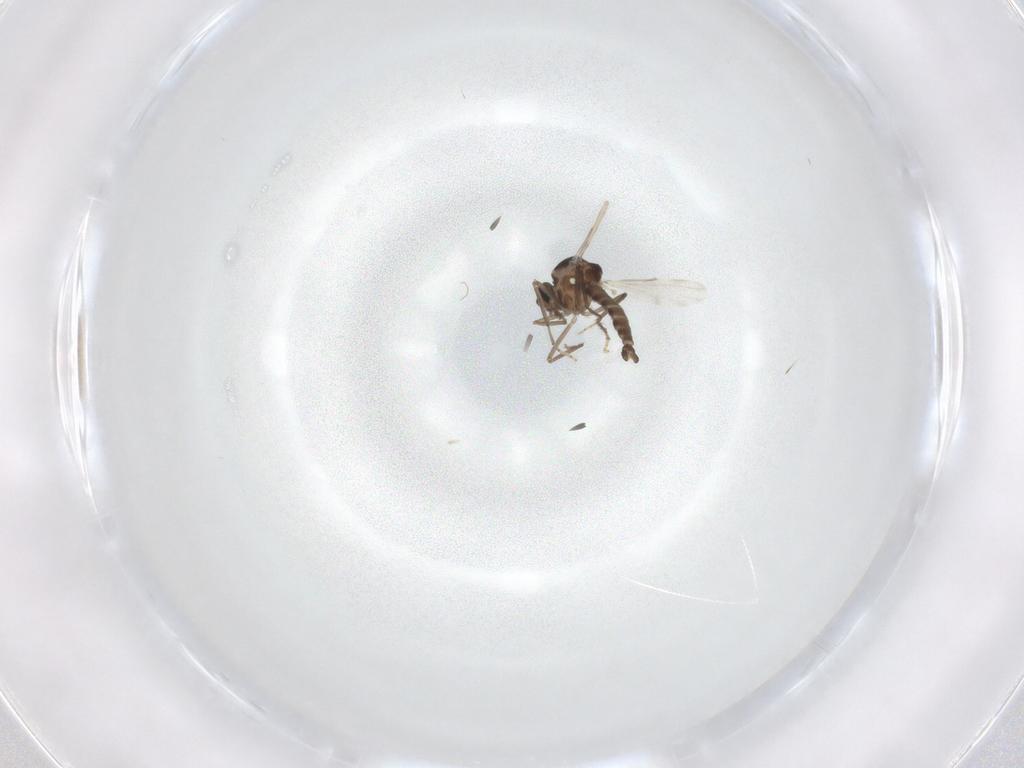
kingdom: Animalia
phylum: Arthropoda
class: Insecta
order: Diptera
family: Ceratopogonidae
